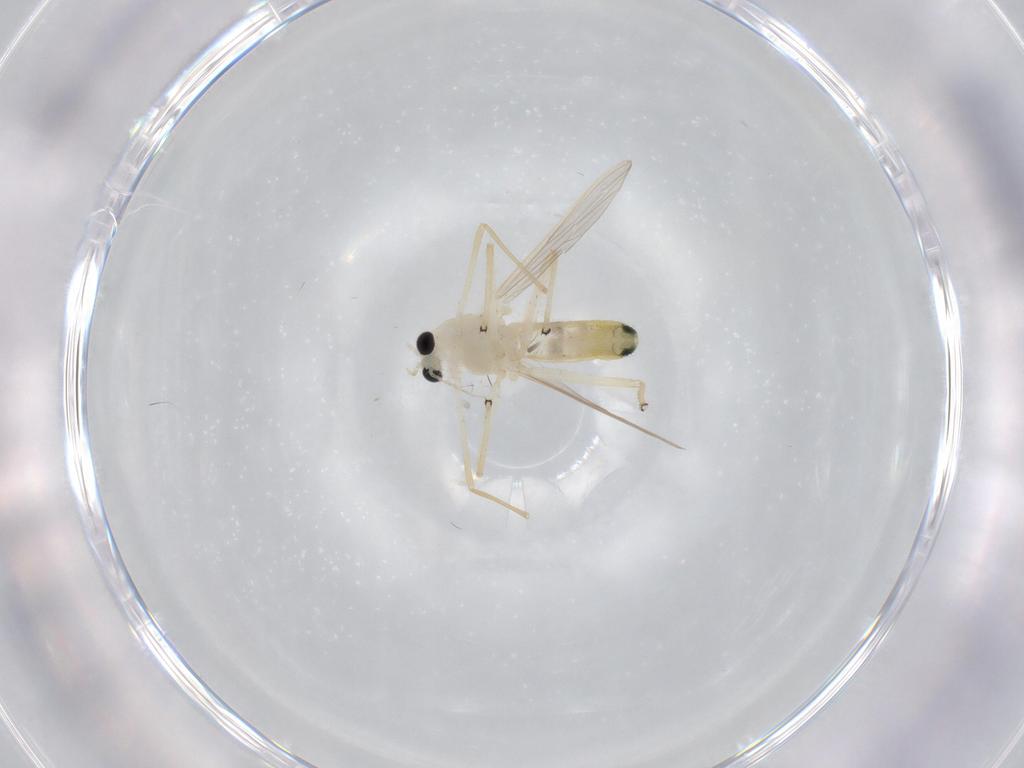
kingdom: Animalia
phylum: Arthropoda
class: Insecta
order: Diptera
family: Chironomidae
